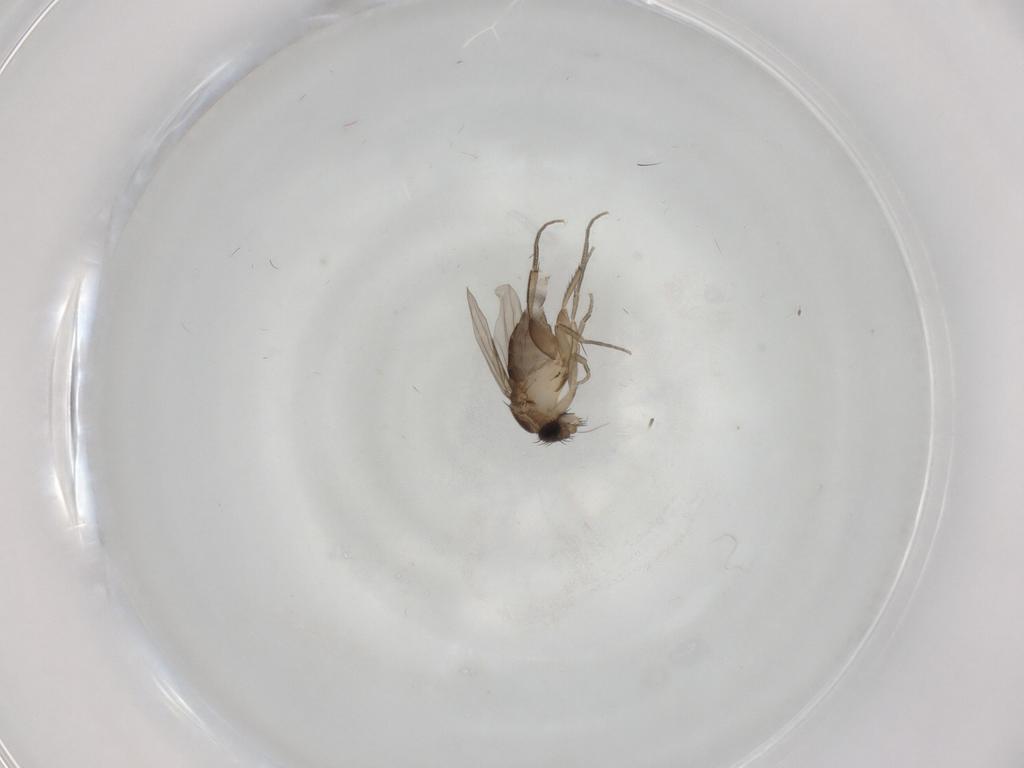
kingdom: Animalia
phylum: Arthropoda
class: Insecta
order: Diptera
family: Phoridae
